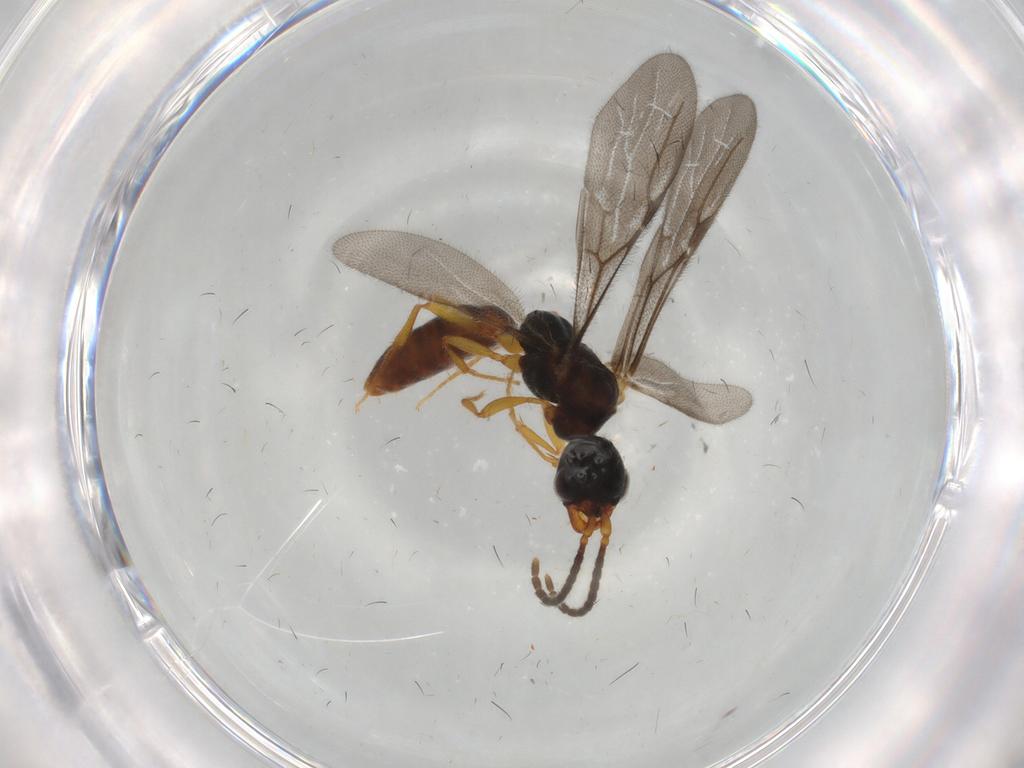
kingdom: Animalia
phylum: Arthropoda
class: Insecta
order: Hymenoptera
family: Bethylidae
